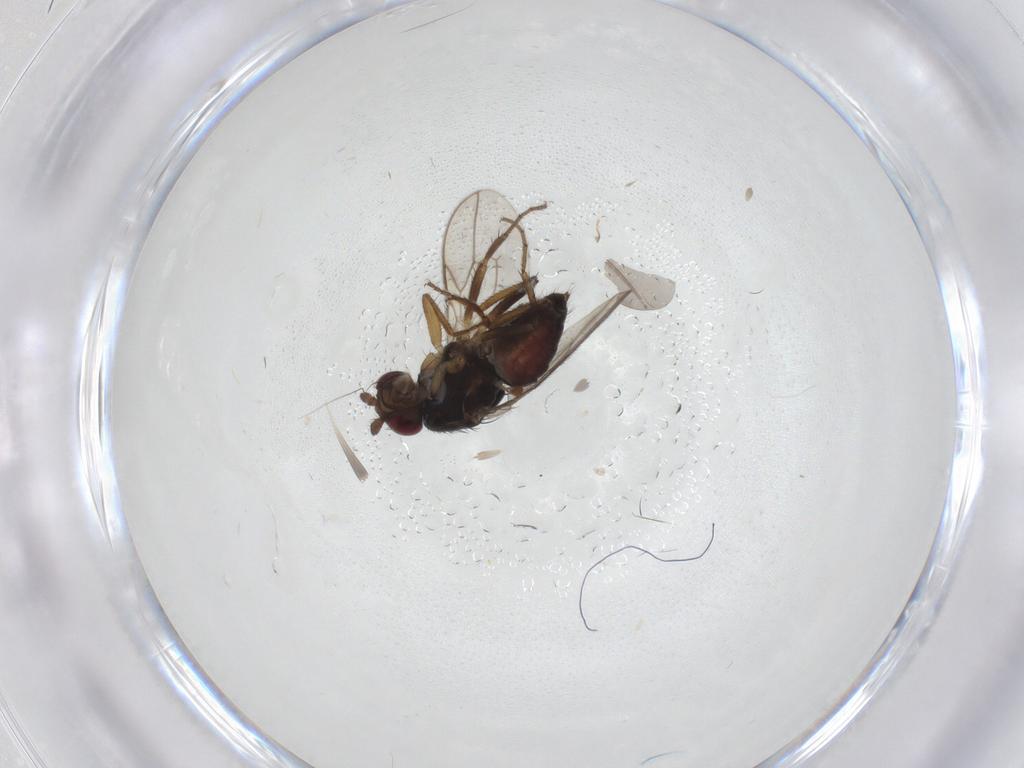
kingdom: Animalia
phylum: Arthropoda
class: Insecta
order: Diptera
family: Sphaeroceridae
